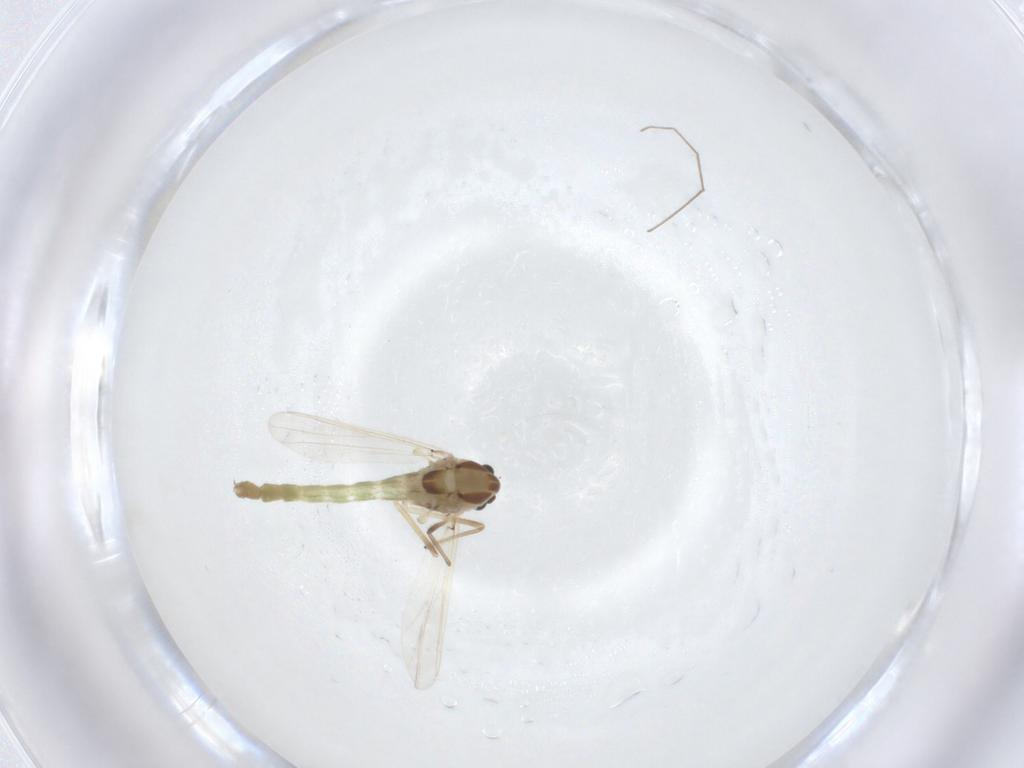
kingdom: Animalia
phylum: Arthropoda
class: Insecta
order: Diptera
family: Chironomidae
